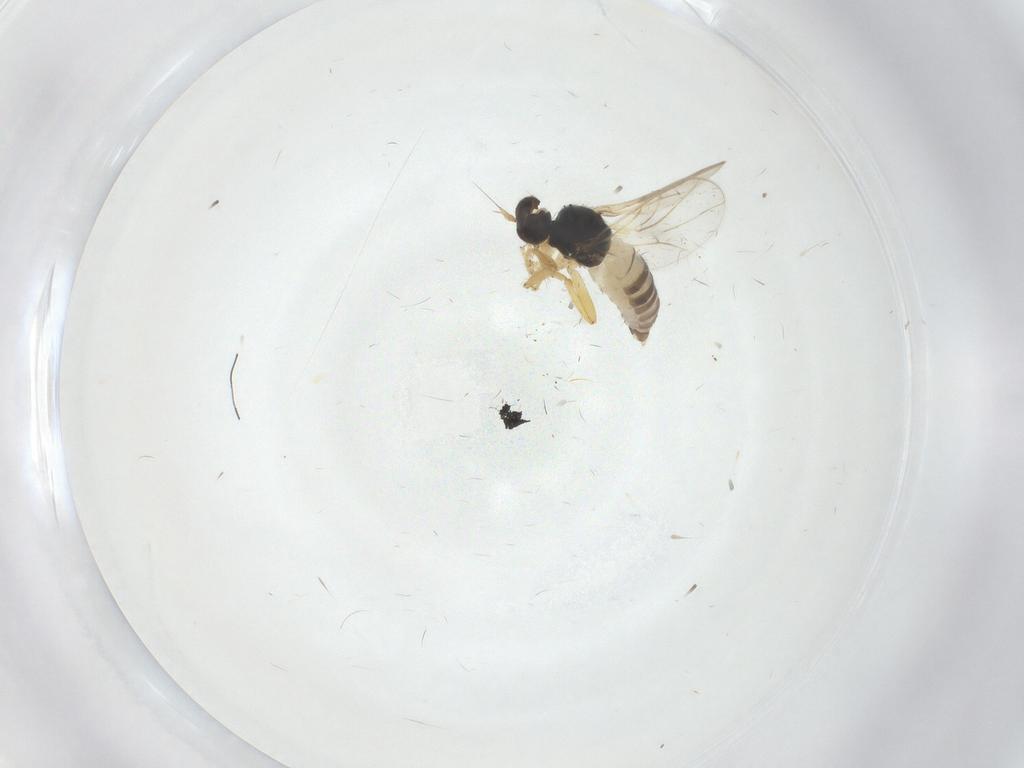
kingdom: Animalia
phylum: Arthropoda
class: Insecta
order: Diptera
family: Hybotidae
